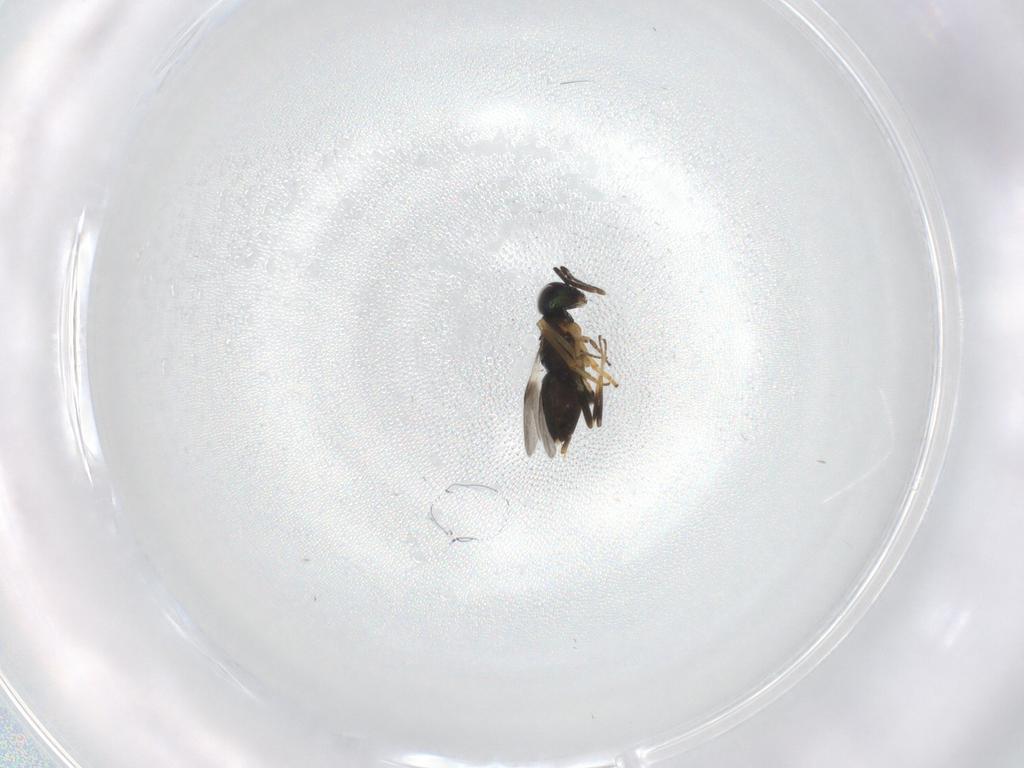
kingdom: Animalia
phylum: Arthropoda
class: Insecta
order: Hymenoptera
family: Encyrtidae
